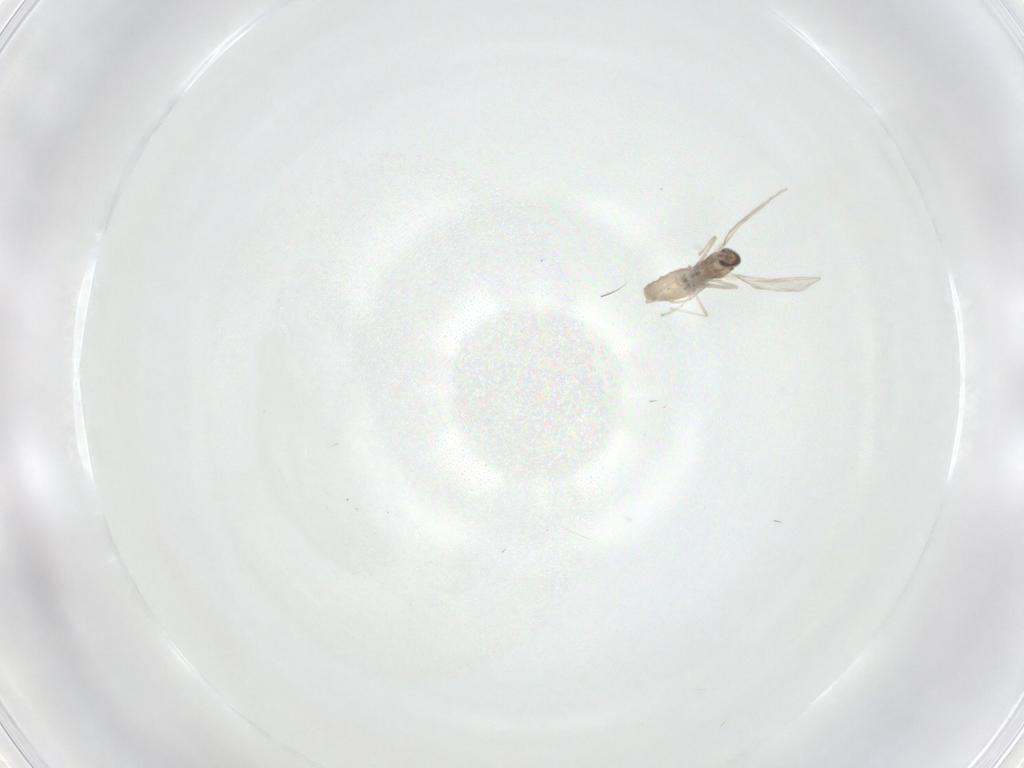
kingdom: Animalia
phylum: Arthropoda
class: Insecta
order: Diptera
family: Cecidomyiidae
